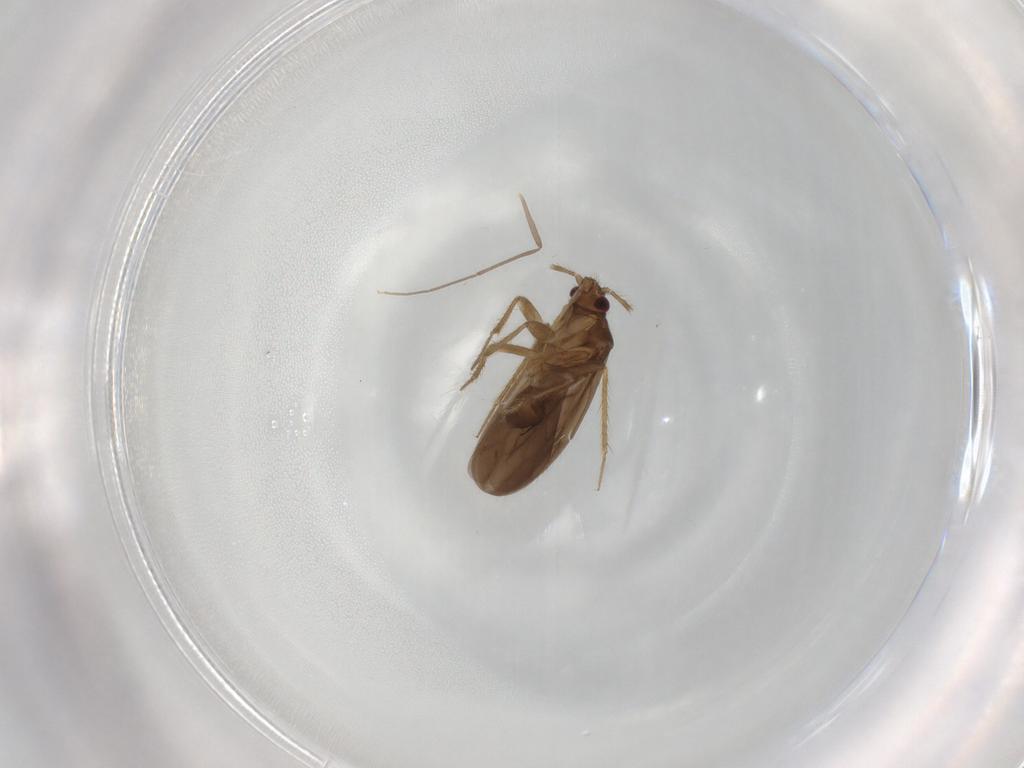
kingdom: Animalia
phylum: Arthropoda
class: Insecta
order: Hemiptera
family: Ceratocombidae
